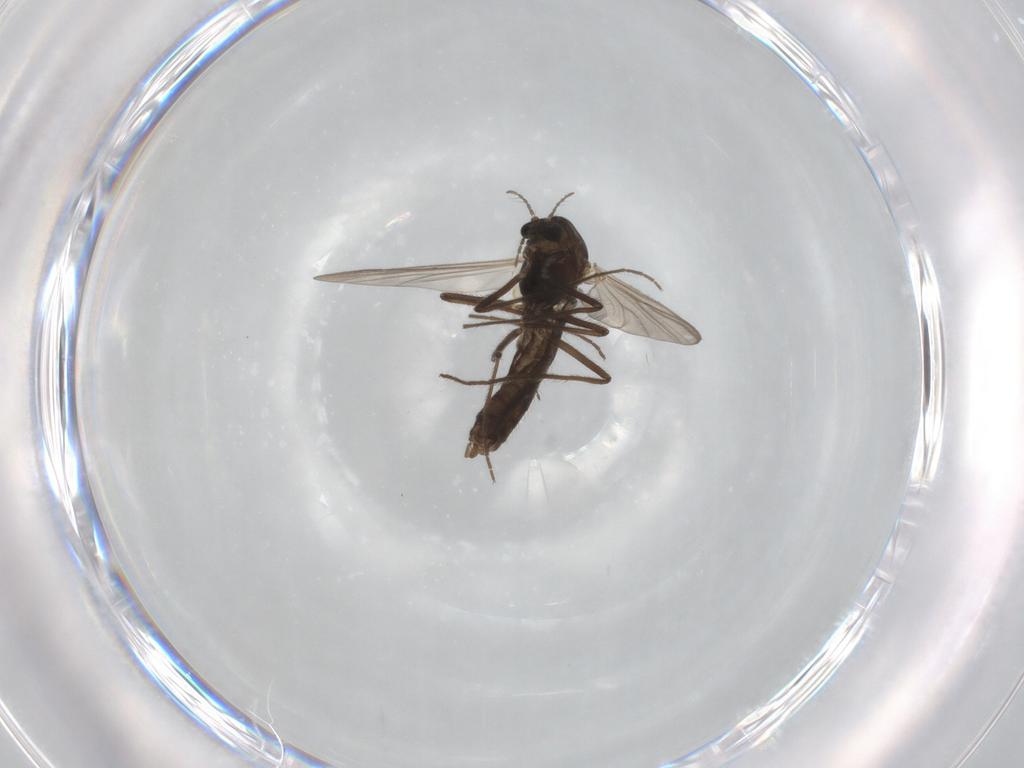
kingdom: Animalia
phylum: Arthropoda
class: Insecta
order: Diptera
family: Chironomidae
